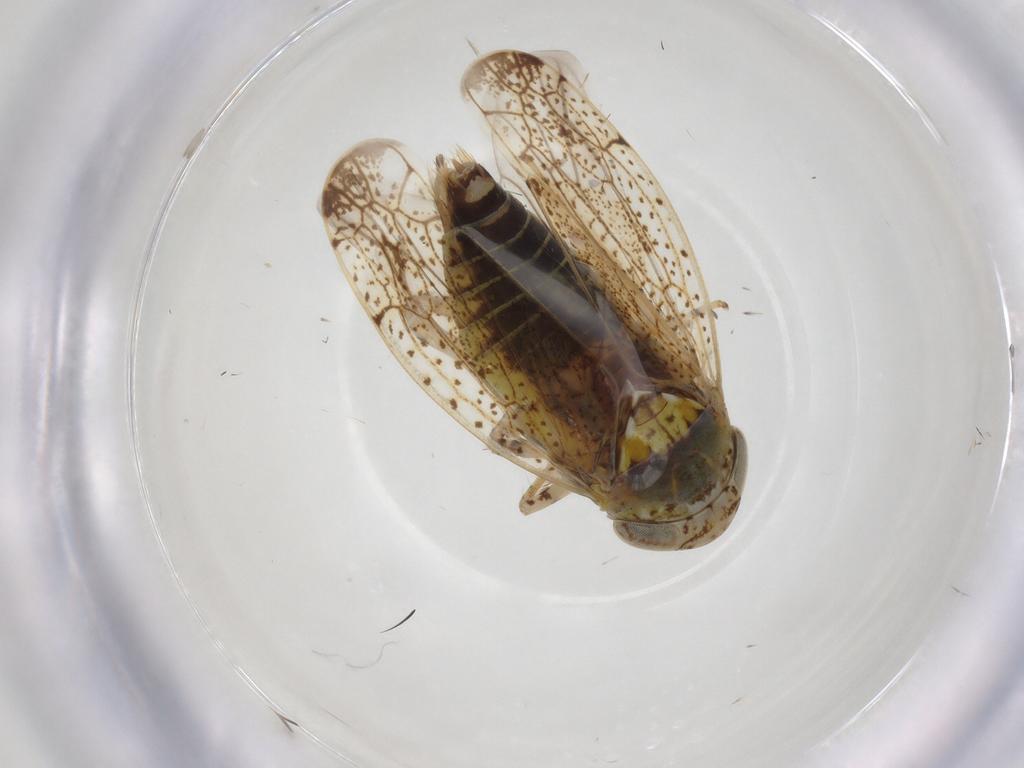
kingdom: Animalia
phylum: Arthropoda
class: Insecta
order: Hemiptera
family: Cicadellidae
